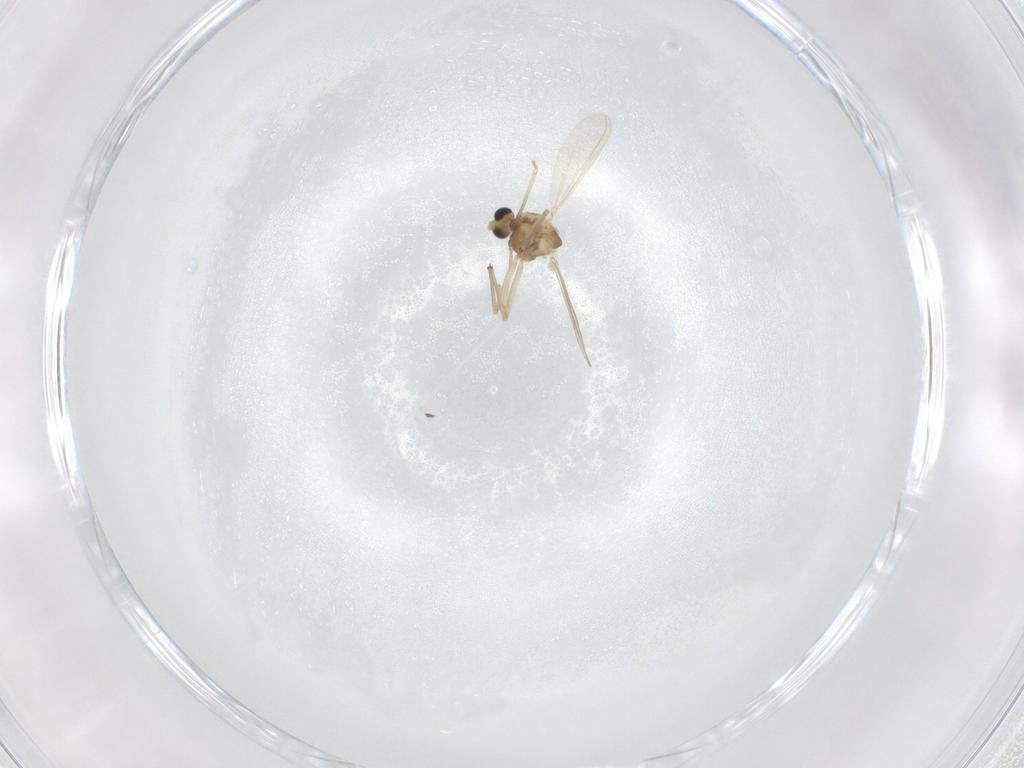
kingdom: Animalia
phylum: Arthropoda
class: Insecta
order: Diptera
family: Chironomidae
